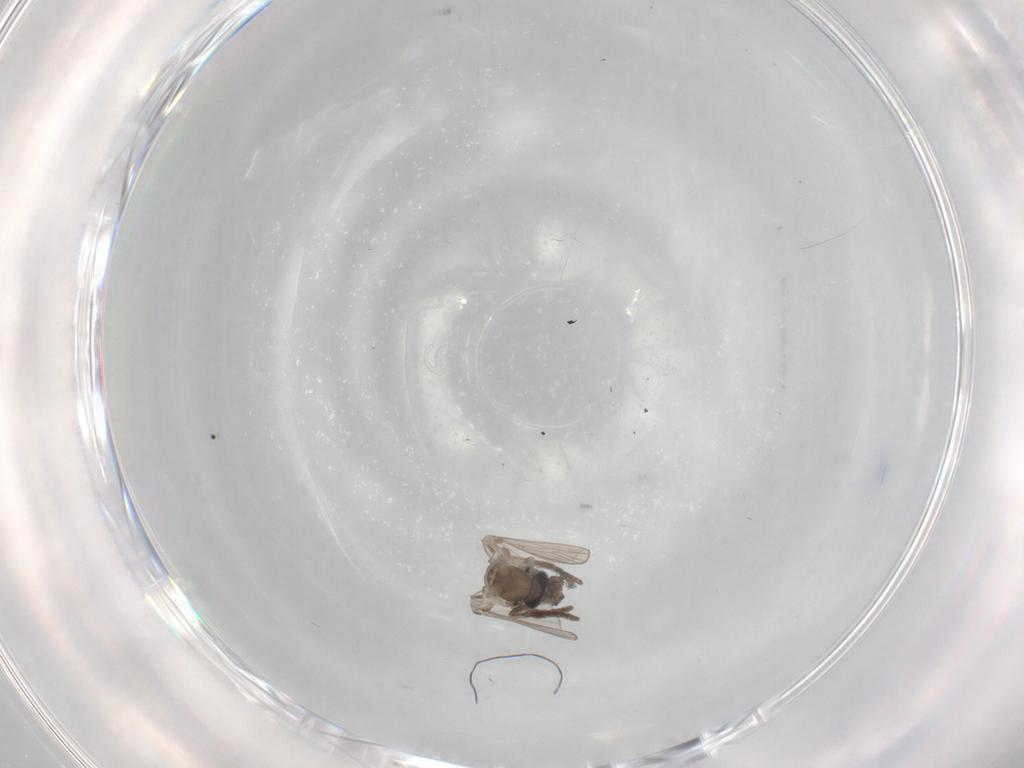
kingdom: Animalia
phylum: Arthropoda
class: Insecta
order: Diptera
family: Psychodidae
